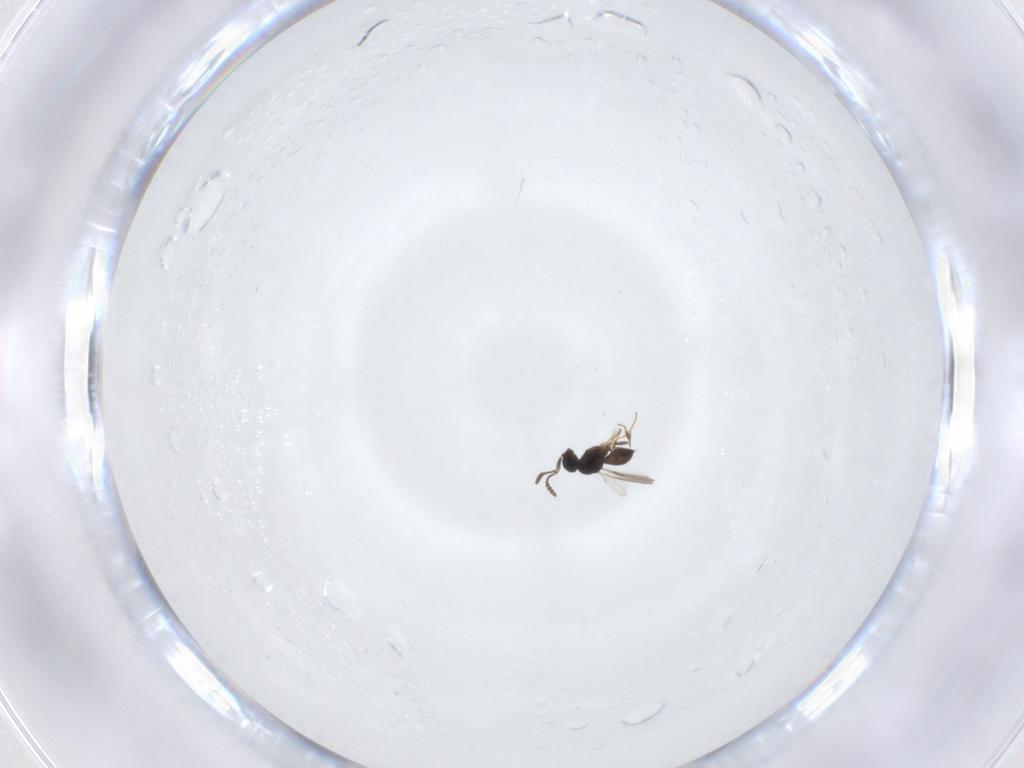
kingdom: Animalia
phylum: Arthropoda
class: Insecta
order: Hymenoptera
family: Scelionidae
